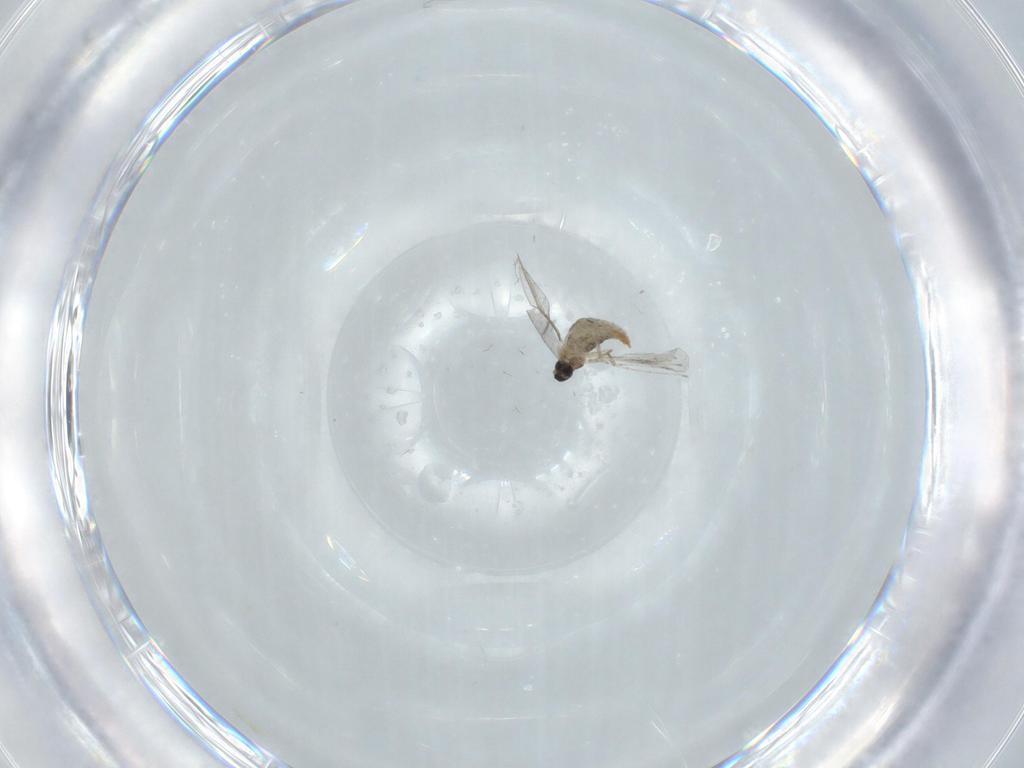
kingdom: Animalia
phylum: Arthropoda
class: Insecta
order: Diptera
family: Cecidomyiidae
